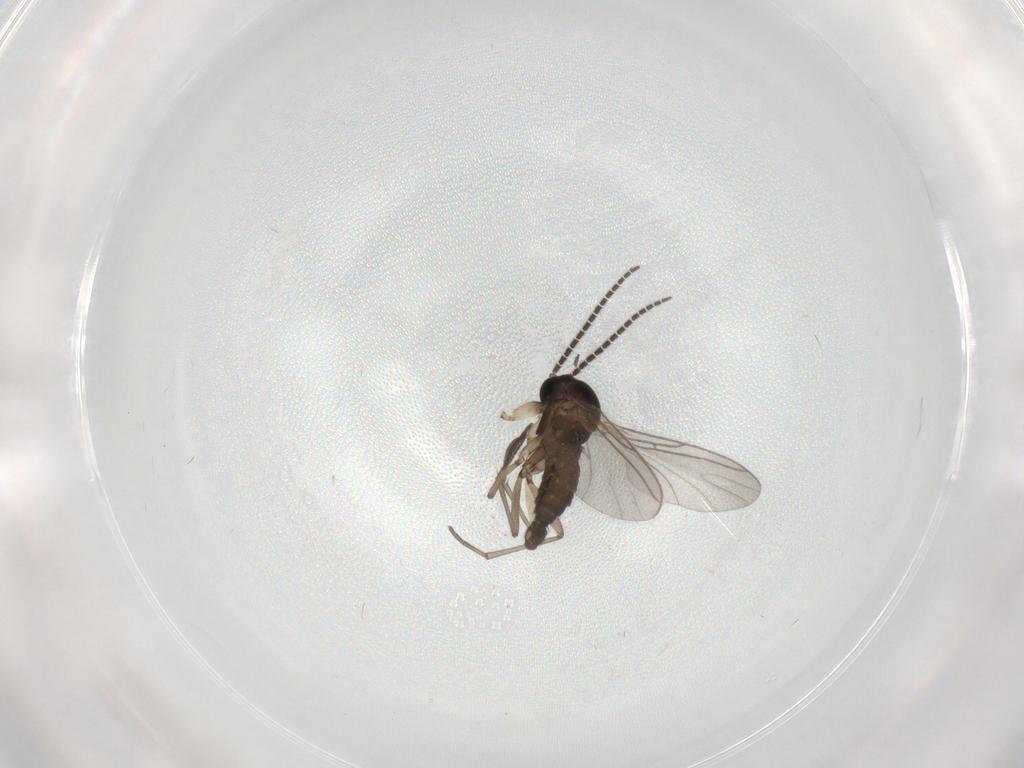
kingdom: Animalia
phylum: Arthropoda
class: Insecta
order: Diptera
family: Sciaridae
